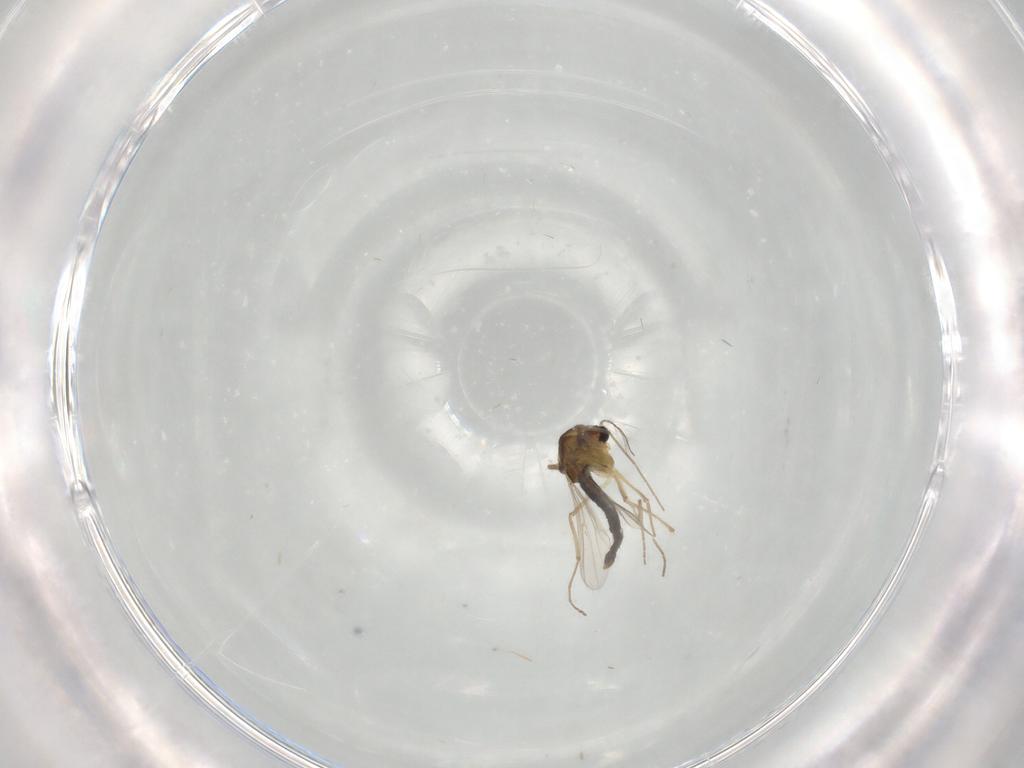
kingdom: Animalia
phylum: Arthropoda
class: Insecta
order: Diptera
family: Chironomidae
